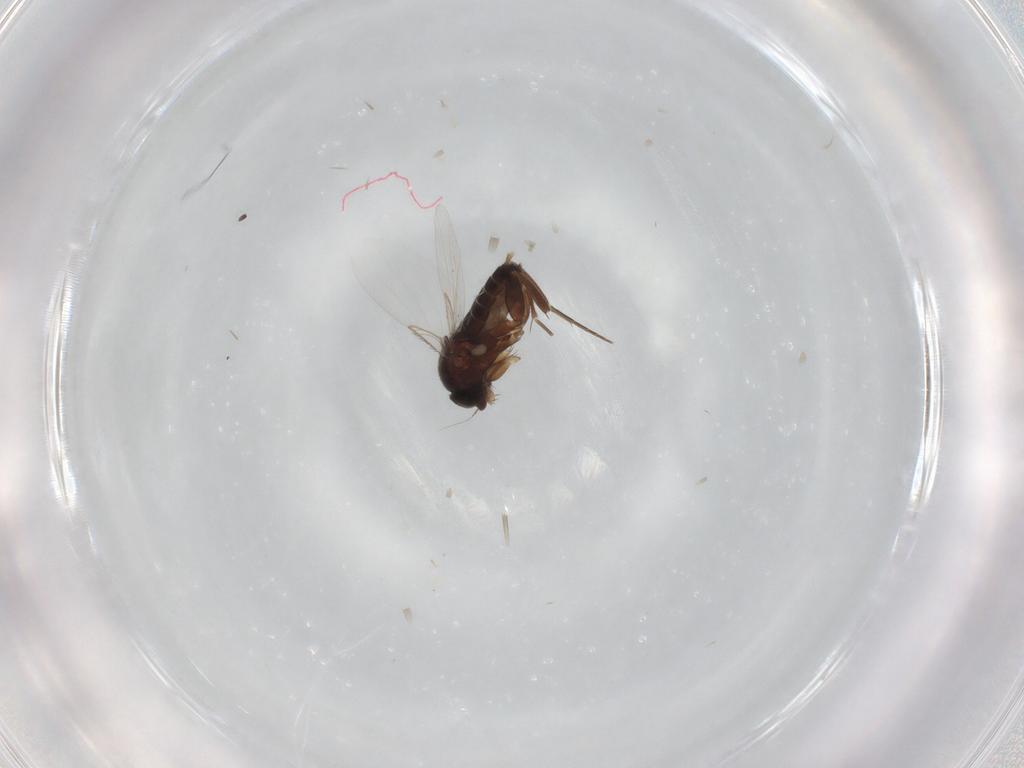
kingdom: Animalia
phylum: Arthropoda
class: Insecta
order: Diptera
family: Phoridae
